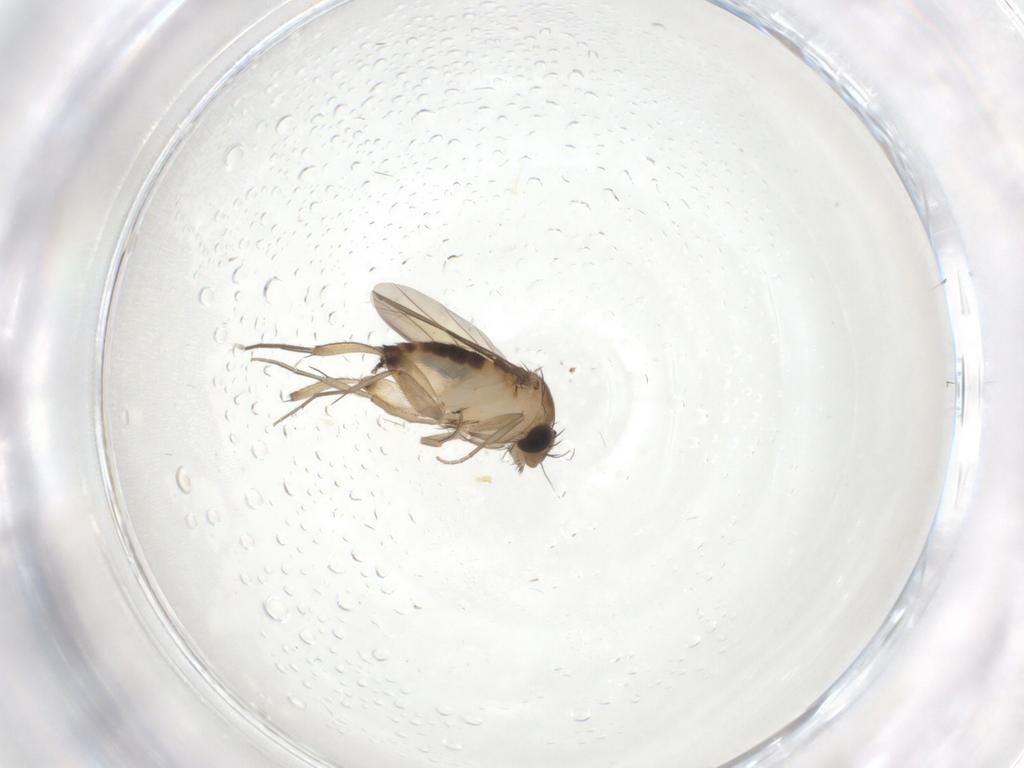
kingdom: Animalia
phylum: Arthropoda
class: Insecta
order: Diptera
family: Phoridae
